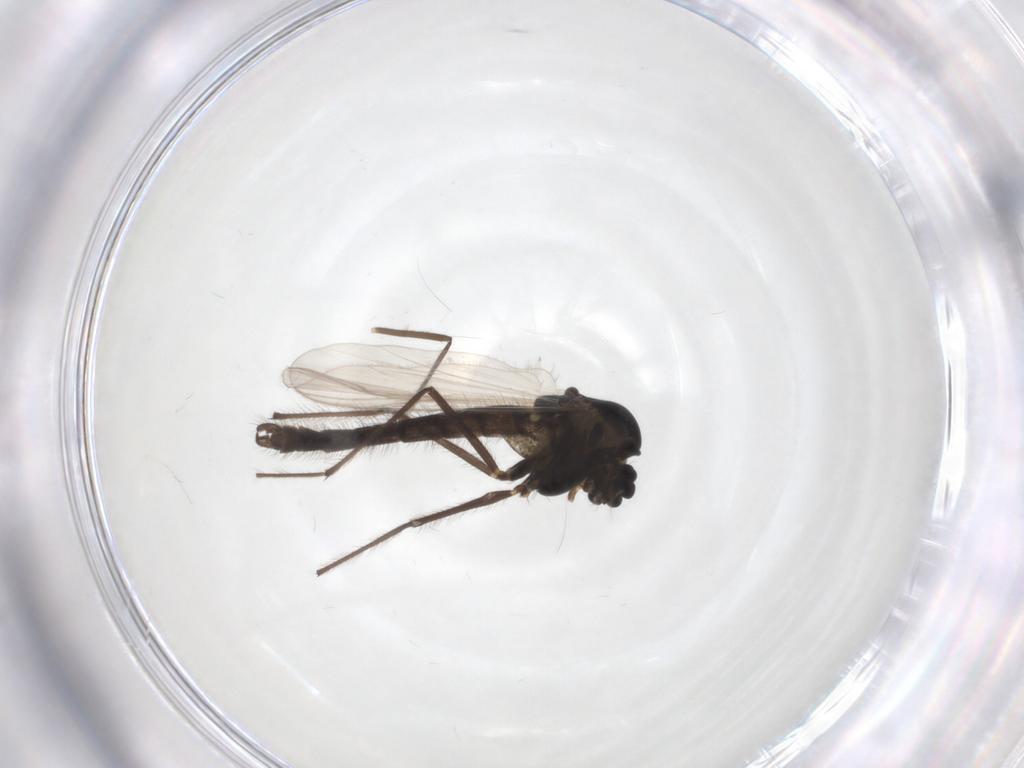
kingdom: Animalia
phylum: Arthropoda
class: Insecta
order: Diptera
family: Chironomidae
